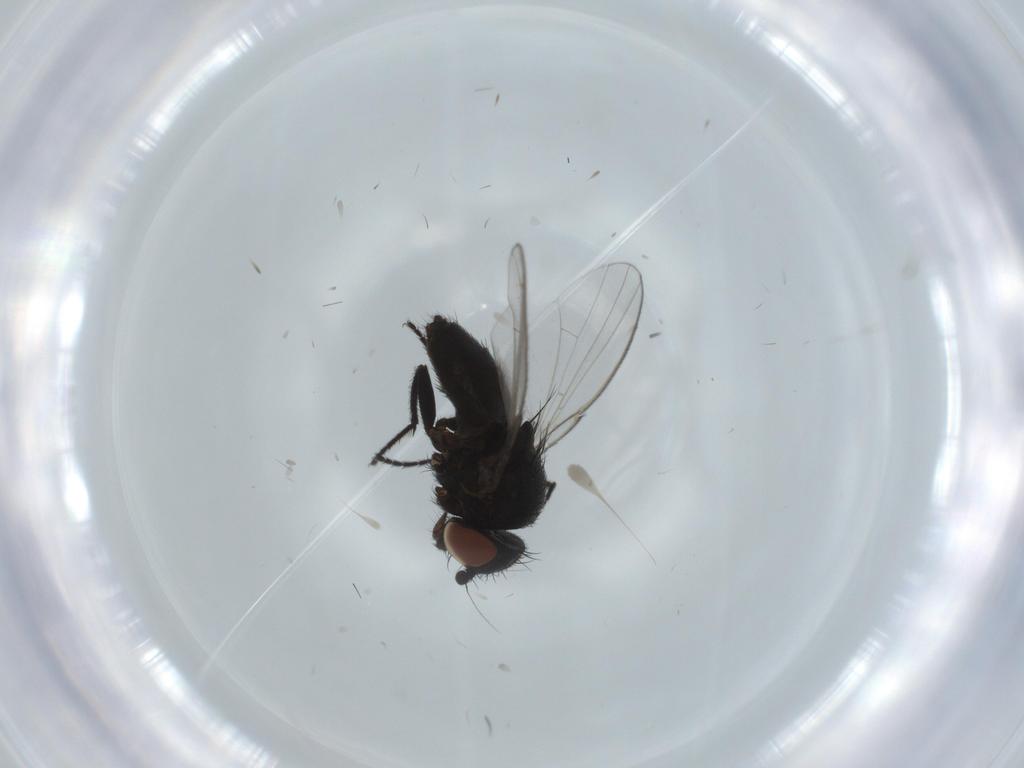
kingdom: Animalia
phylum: Arthropoda
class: Insecta
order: Diptera
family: Milichiidae
